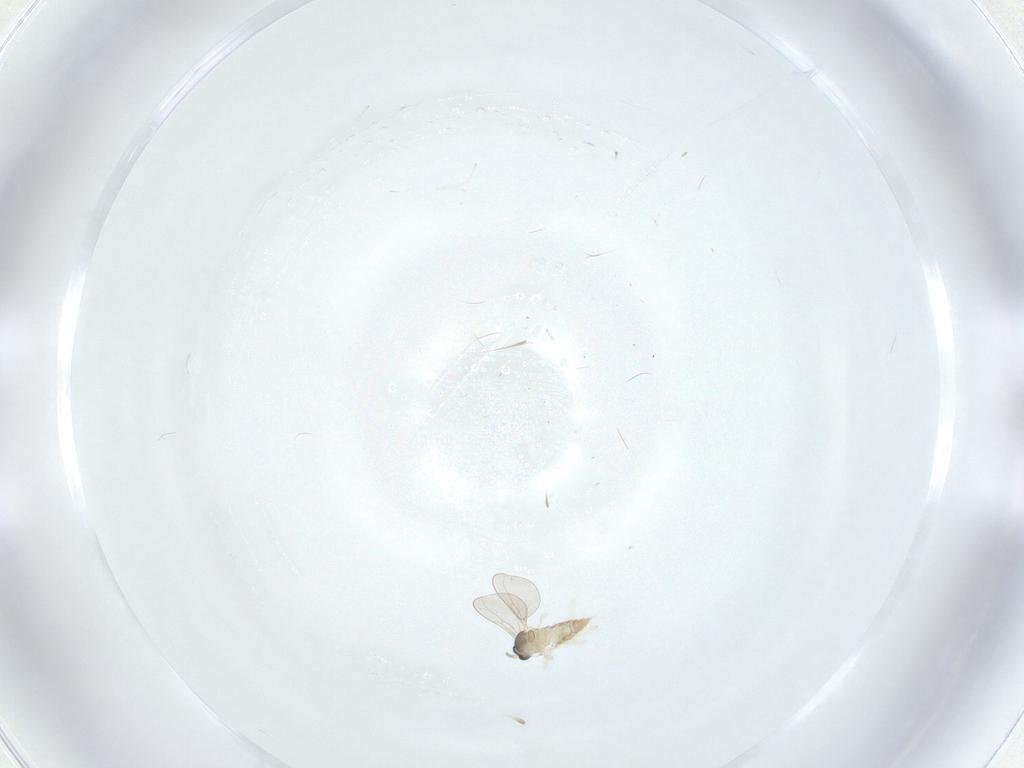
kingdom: Animalia
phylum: Arthropoda
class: Insecta
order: Diptera
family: Cecidomyiidae
